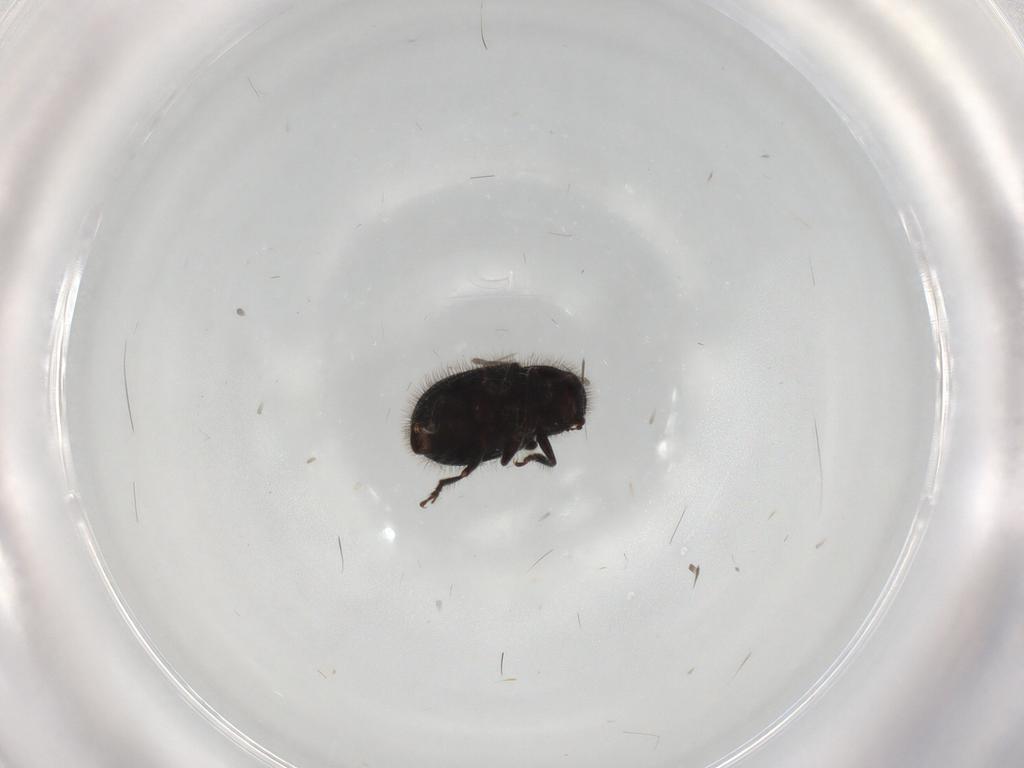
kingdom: Animalia
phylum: Arthropoda
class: Insecta
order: Coleoptera
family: Anthribidae
